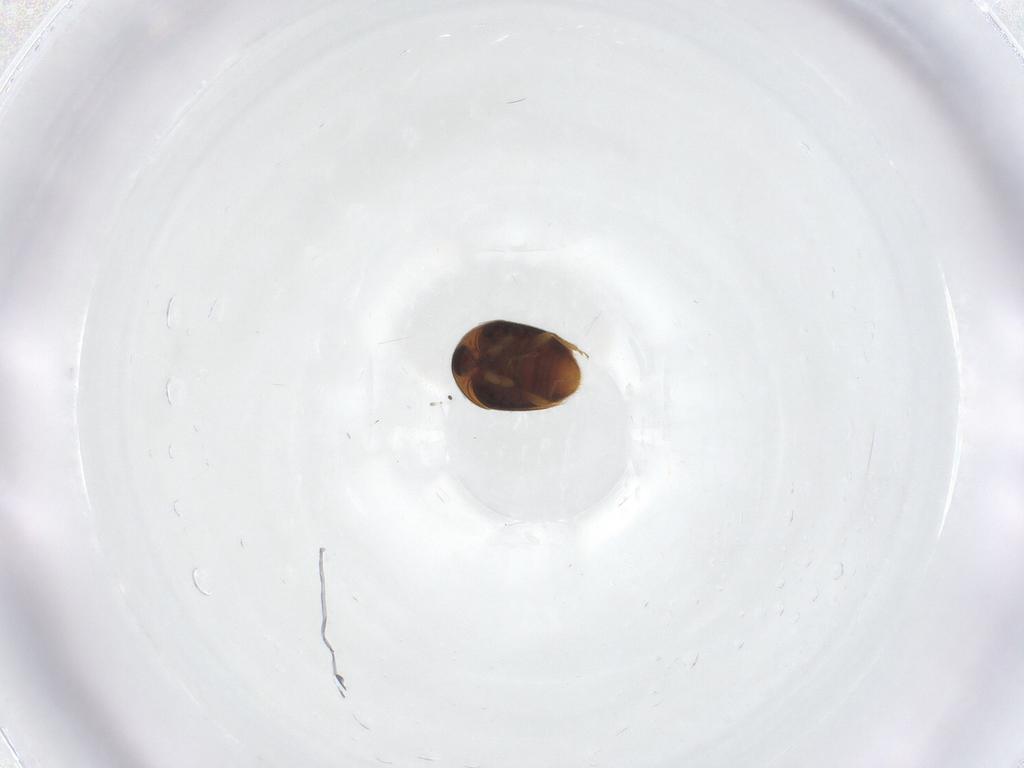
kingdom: Animalia
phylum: Arthropoda
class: Insecta
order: Coleoptera
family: Corylophidae
